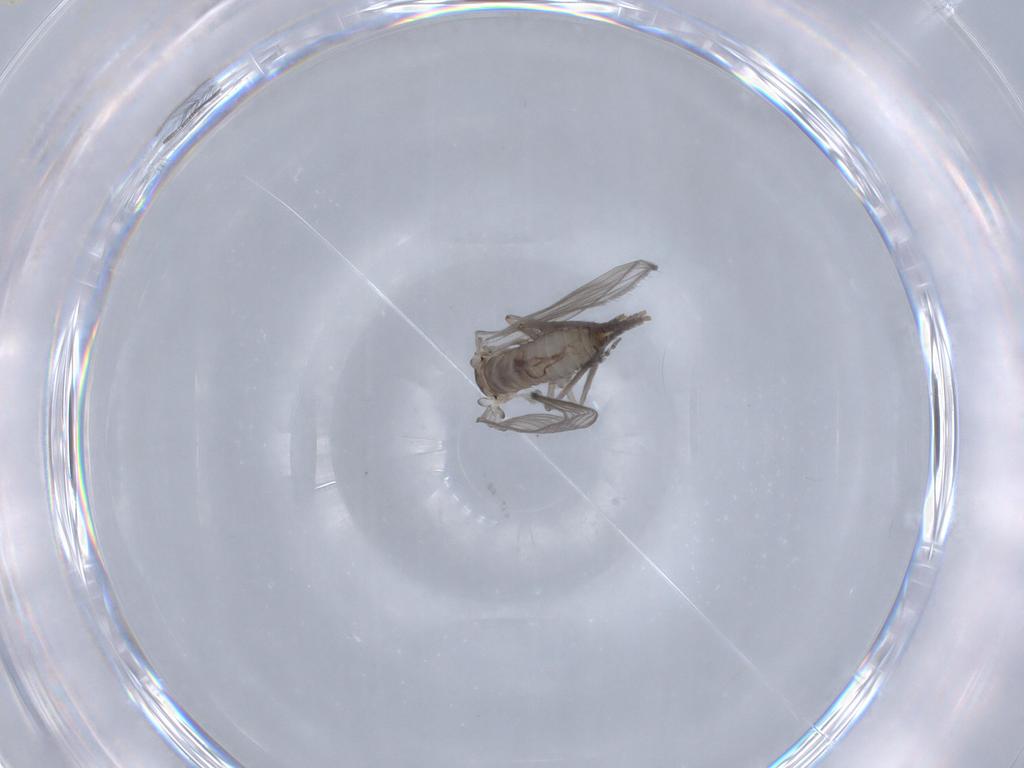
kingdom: Animalia
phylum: Arthropoda
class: Insecta
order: Diptera
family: Psychodidae
